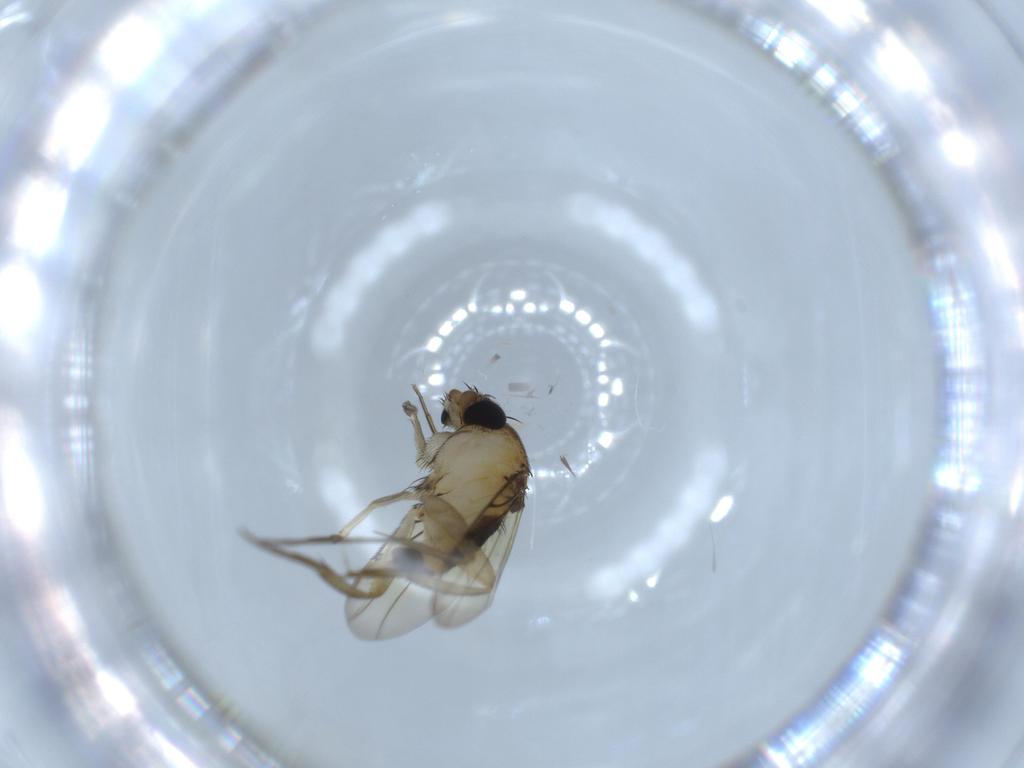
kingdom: Animalia
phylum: Arthropoda
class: Insecta
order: Diptera
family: Phoridae
